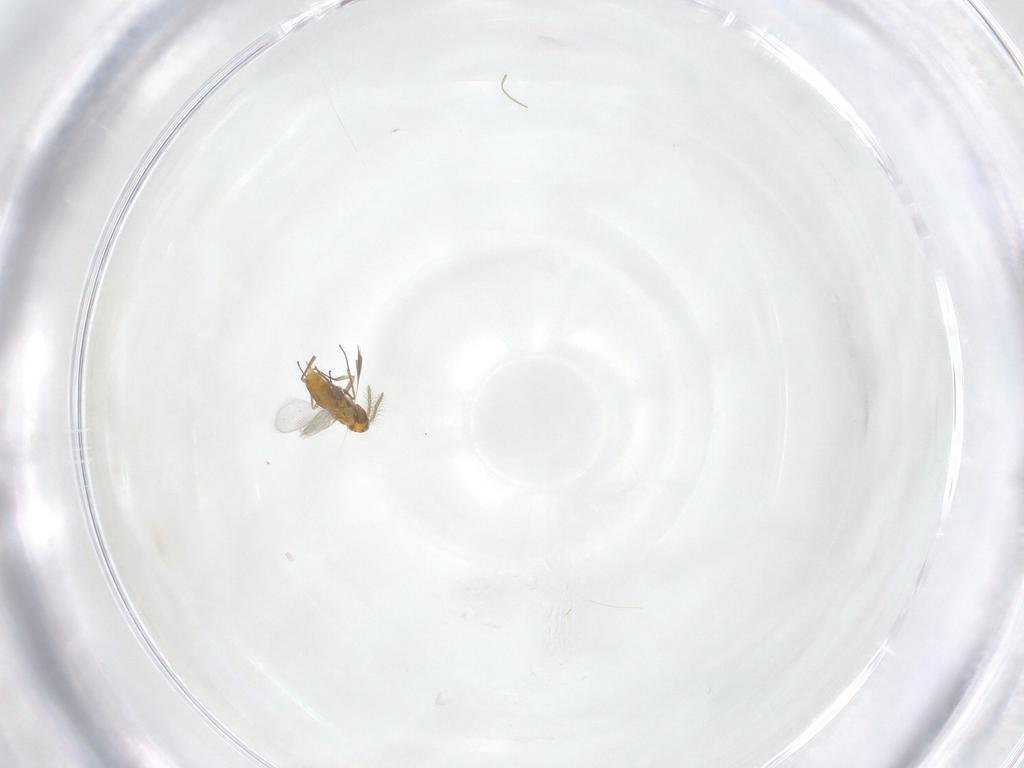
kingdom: Animalia
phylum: Arthropoda
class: Insecta
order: Hymenoptera
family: Aphelinidae
